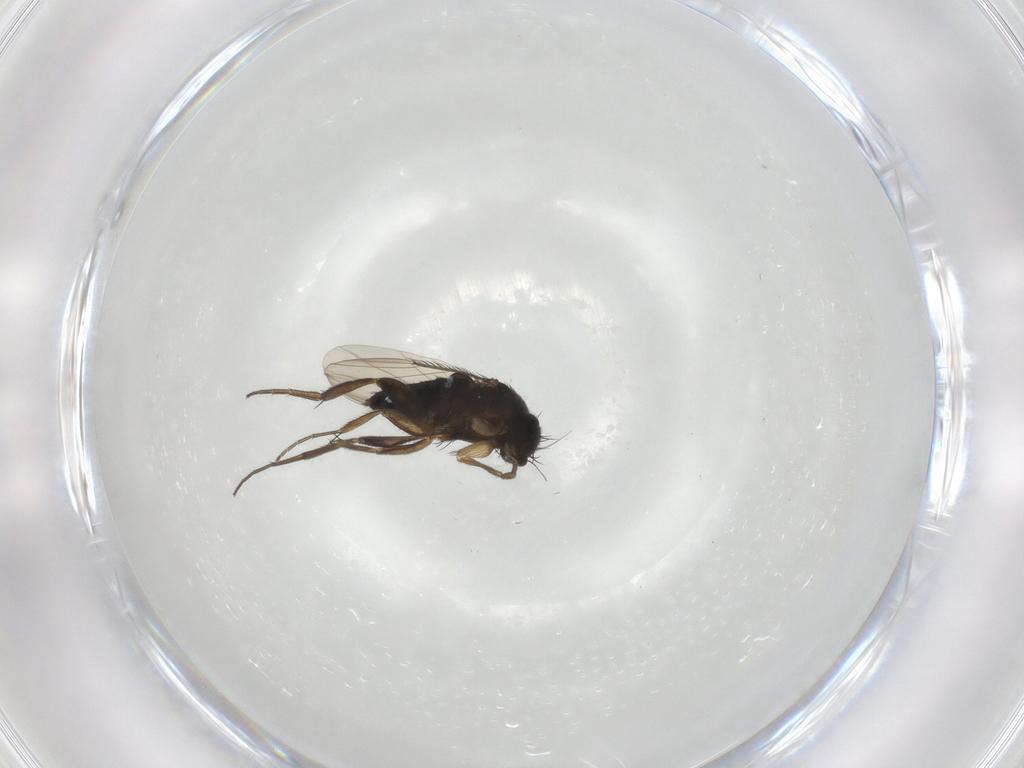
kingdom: Animalia
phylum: Arthropoda
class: Insecta
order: Diptera
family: Phoridae
